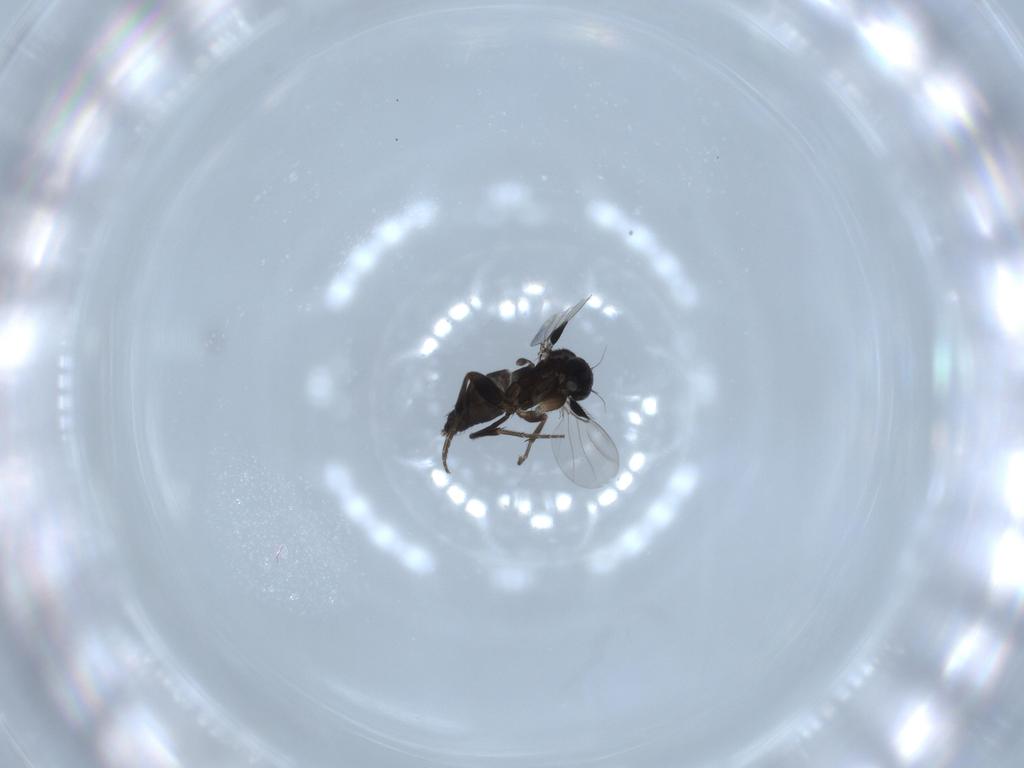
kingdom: Animalia
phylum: Arthropoda
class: Insecta
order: Diptera
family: Phoridae
